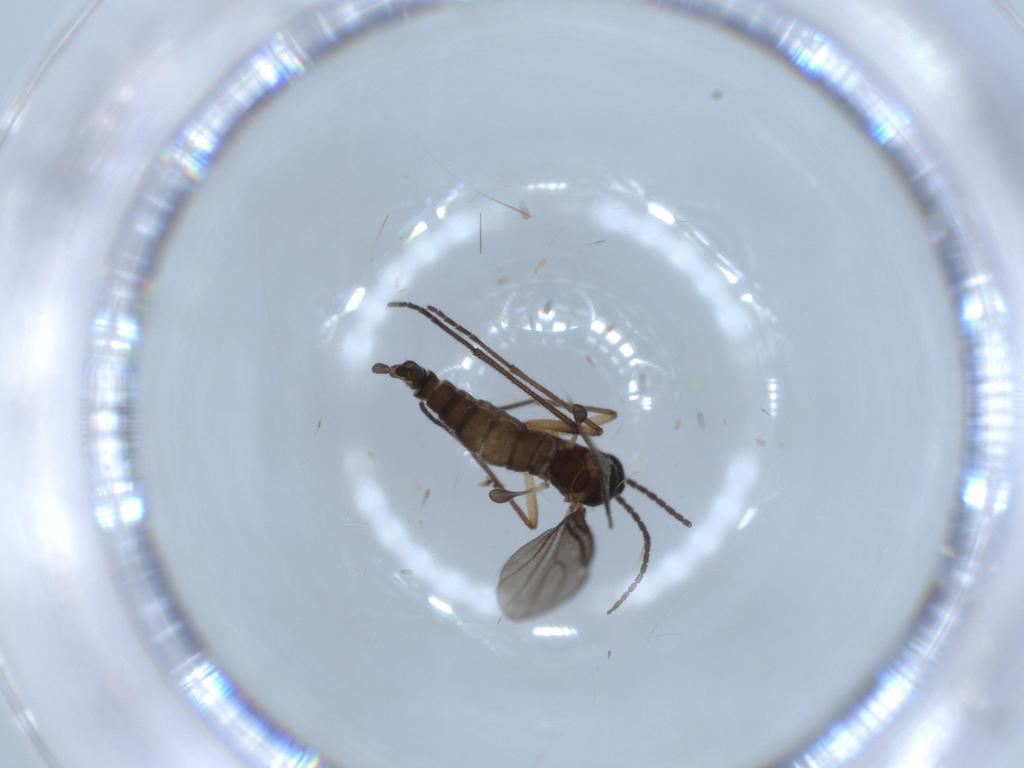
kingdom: Animalia
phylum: Arthropoda
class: Insecta
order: Diptera
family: Sciaridae
